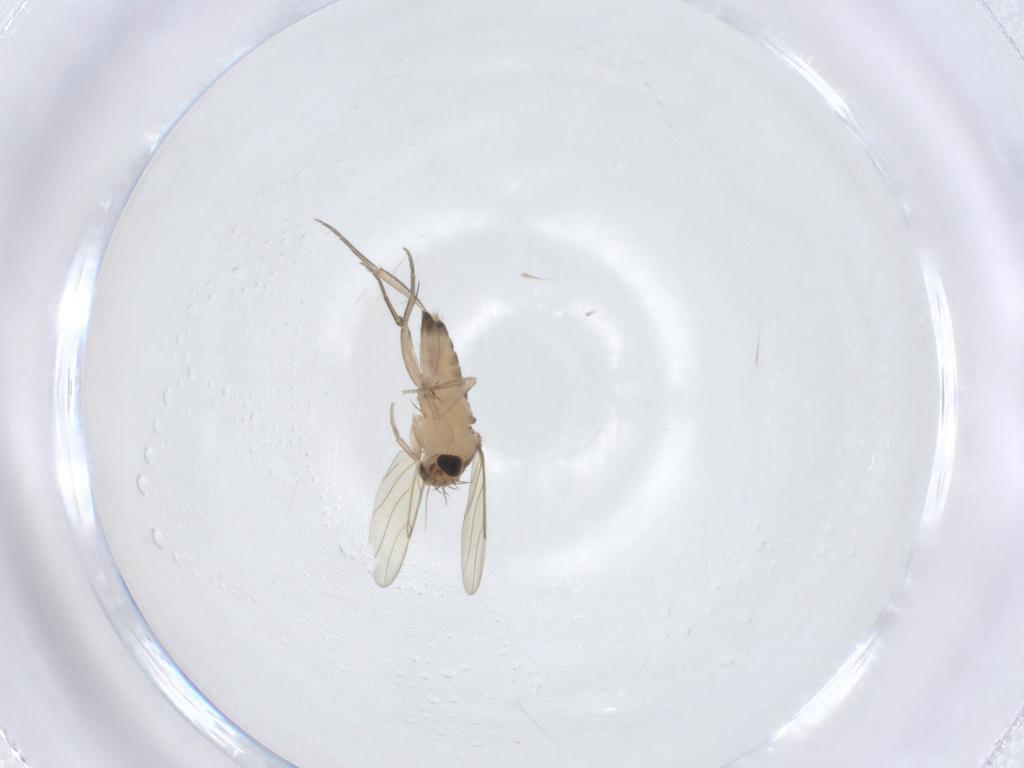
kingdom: Animalia
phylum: Arthropoda
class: Insecta
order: Diptera
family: Phoridae
